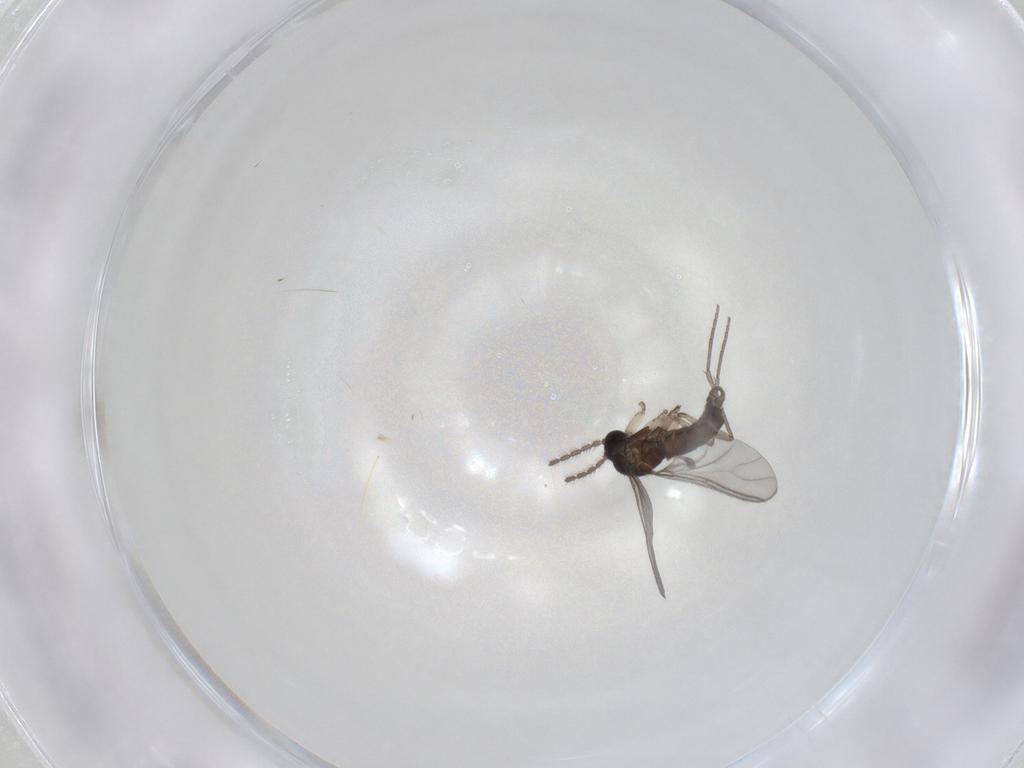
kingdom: Animalia
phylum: Arthropoda
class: Insecta
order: Diptera
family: Sciaridae
